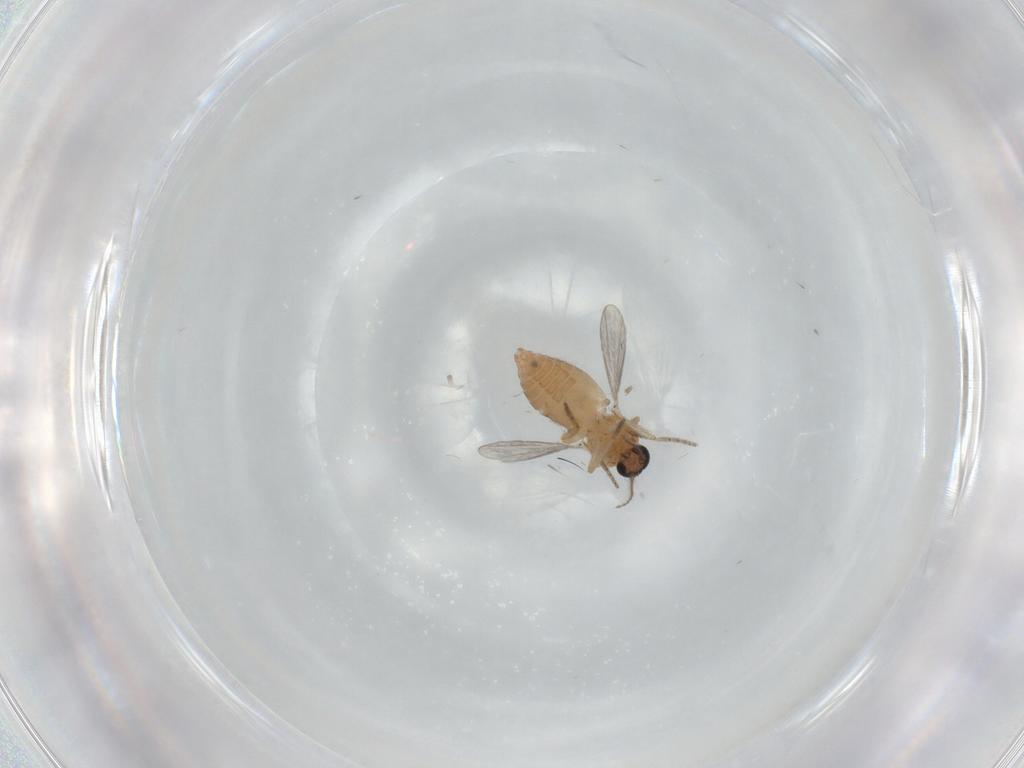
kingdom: Animalia
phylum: Arthropoda
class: Insecta
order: Diptera
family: Ceratopogonidae
